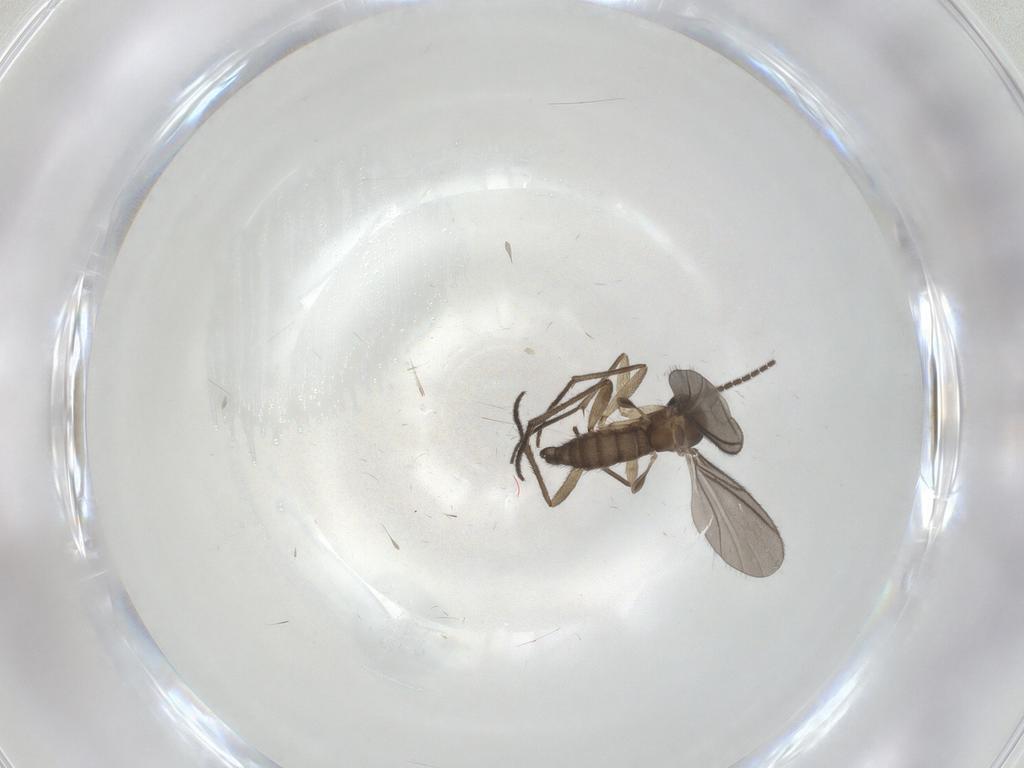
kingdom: Animalia
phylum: Arthropoda
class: Insecta
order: Diptera
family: Sciaridae
